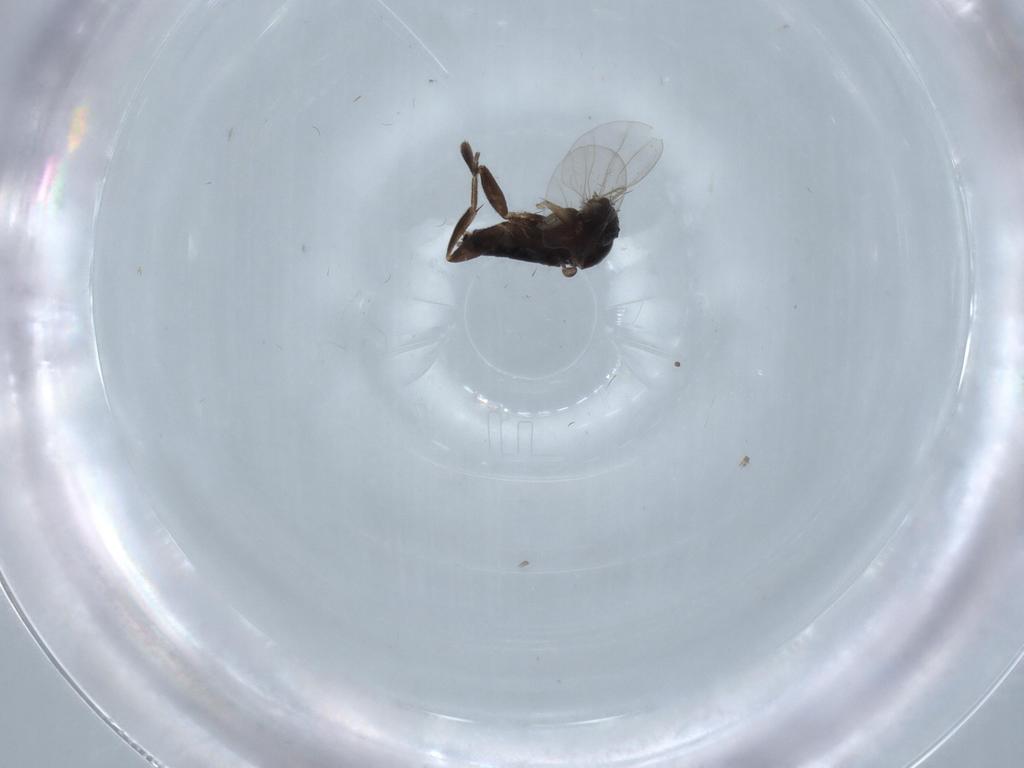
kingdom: Animalia
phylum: Arthropoda
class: Insecta
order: Diptera
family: Phoridae
